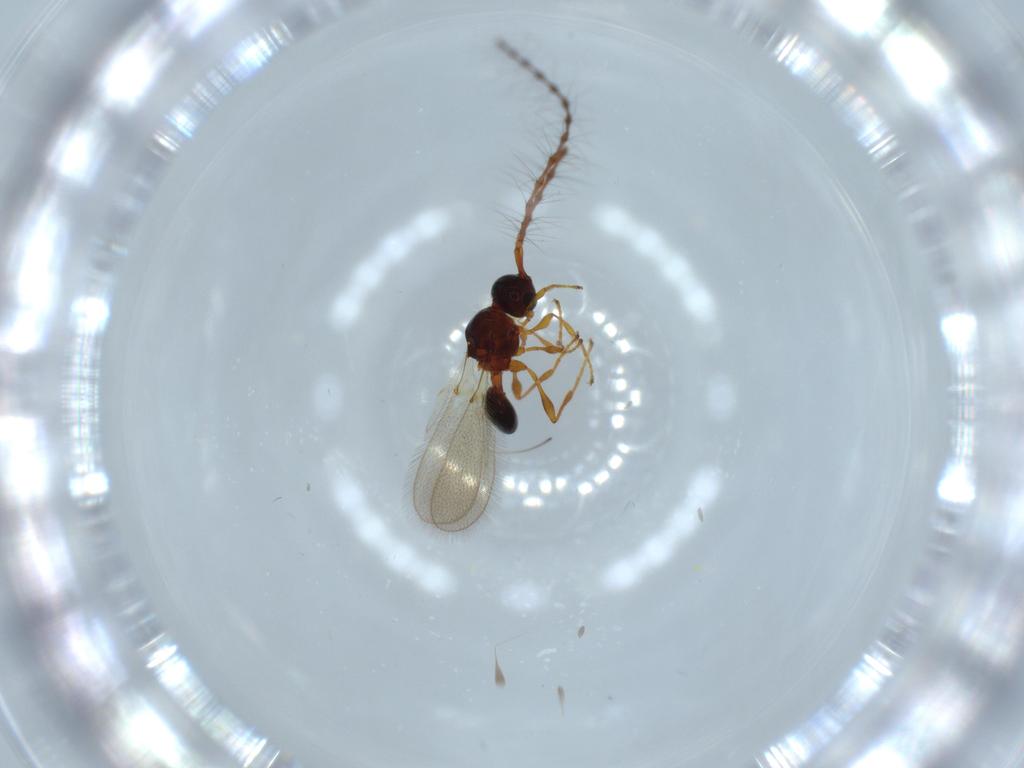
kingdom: Animalia
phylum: Arthropoda
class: Insecta
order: Hymenoptera
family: Diapriidae
